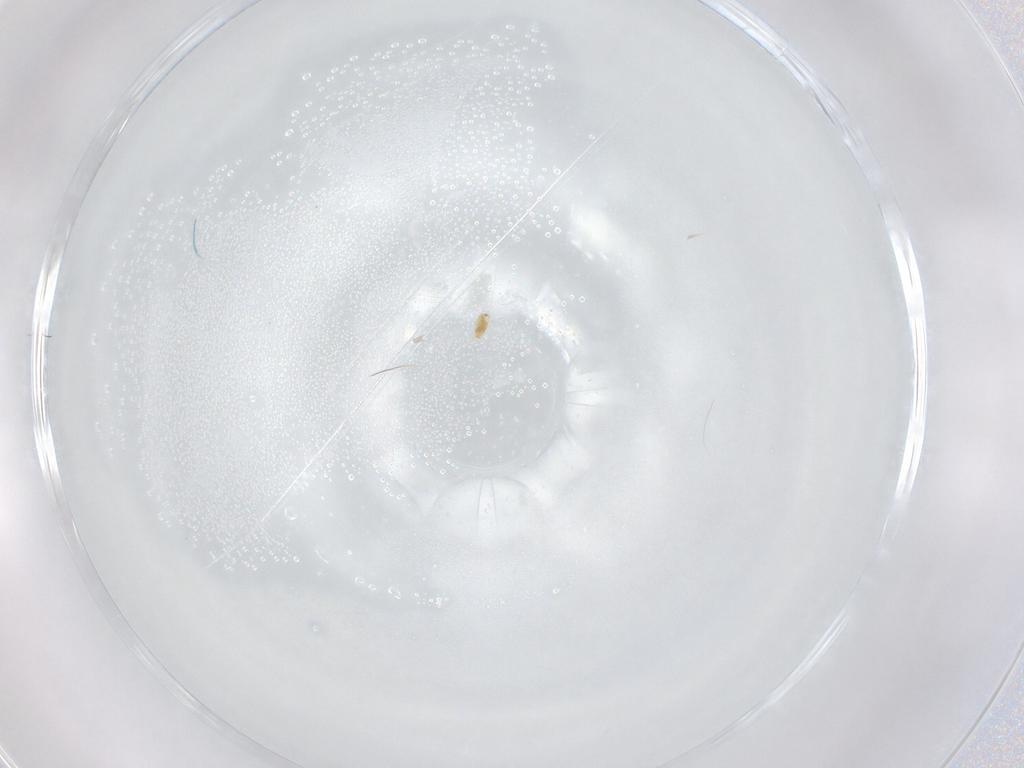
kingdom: Animalia
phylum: Arthropoda
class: Arachnida
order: Trombidiformes
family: Eupodidae
